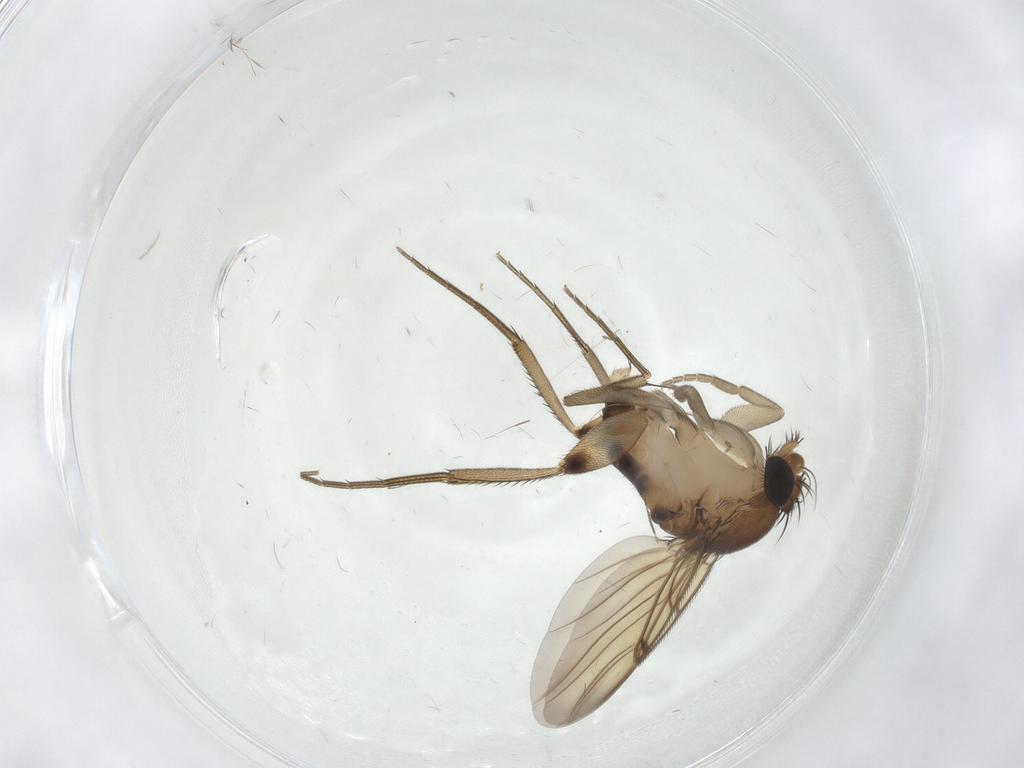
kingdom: Animalia
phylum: Arthropoda
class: Insecta
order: Diptera
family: Phoridae
